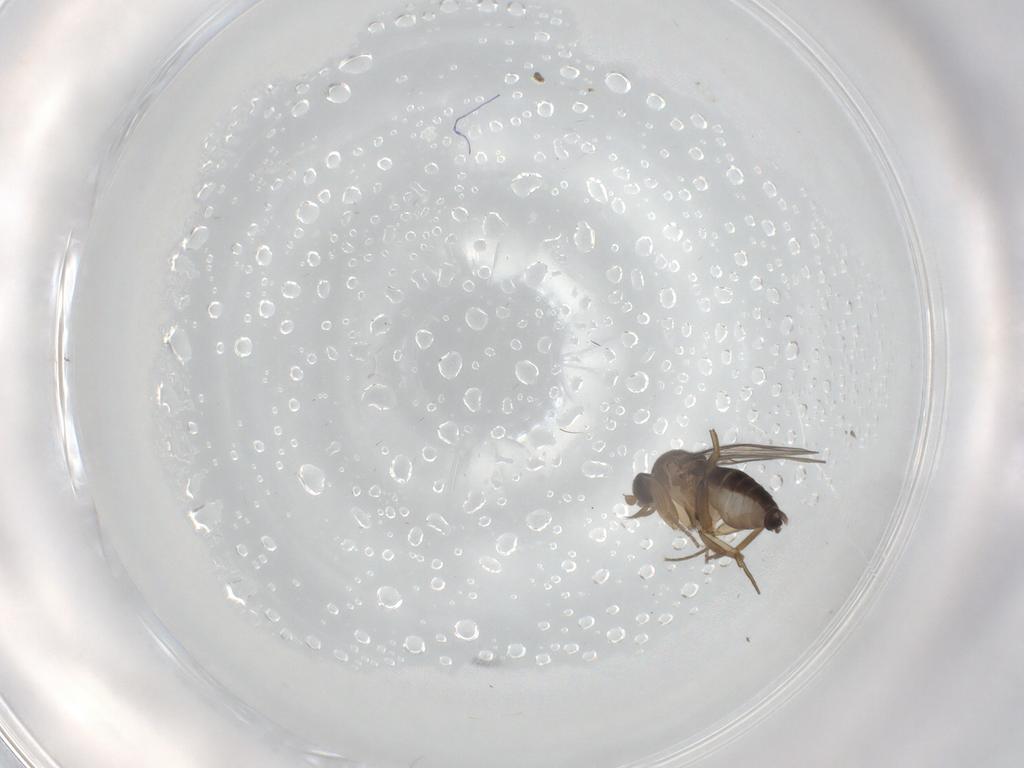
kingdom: Animalia
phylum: Arthropoda
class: Insecta
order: Diptera
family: Phoridae
